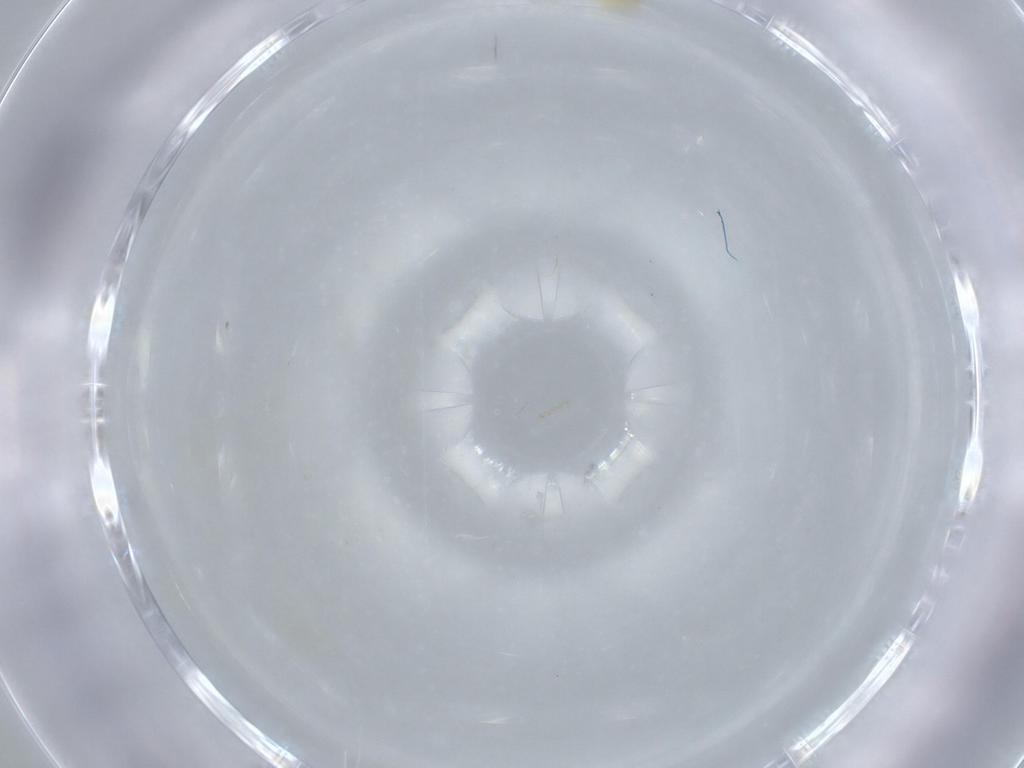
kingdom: Animalia
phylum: Arthropoda
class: Insecta
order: Hemiptera
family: Aleyrodidae
